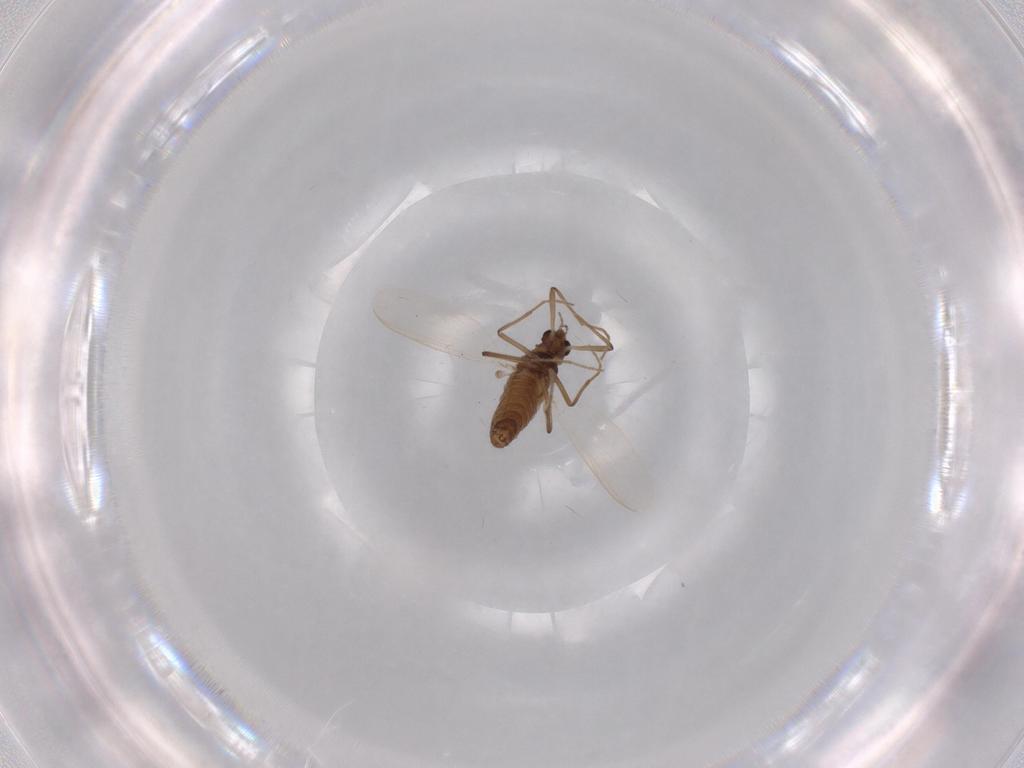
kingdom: Animalia
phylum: Arthropoda
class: Insecta
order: Diptera
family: Chironomidae
